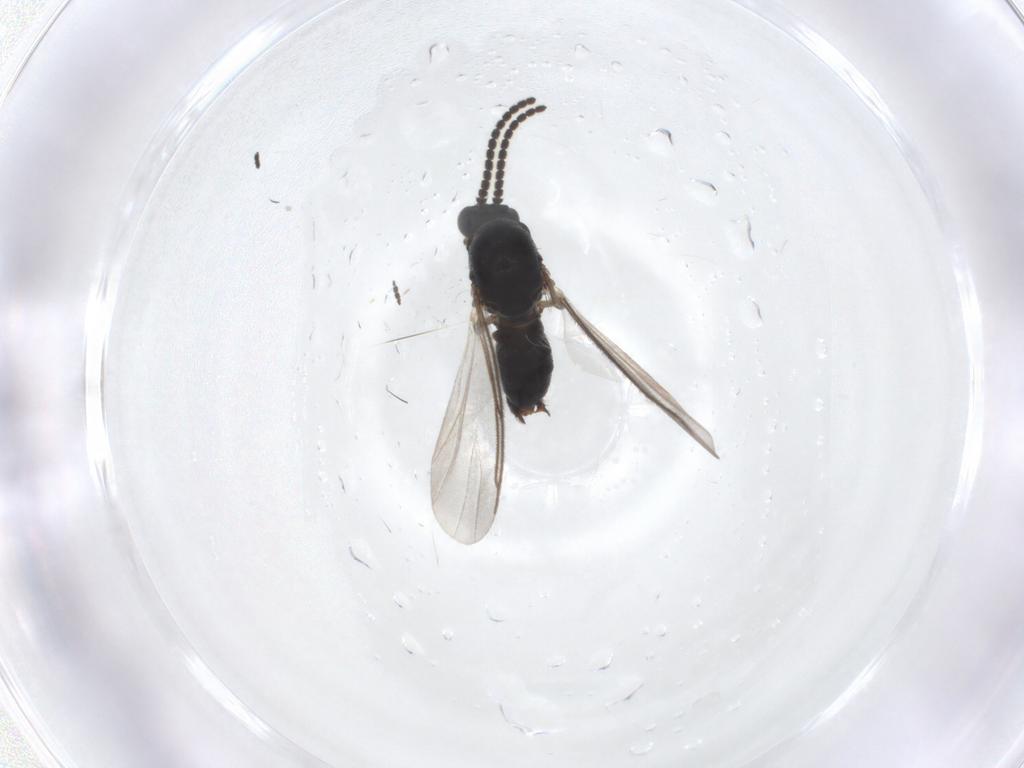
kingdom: Animalia
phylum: Arthropoda
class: Insecta
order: Diptera
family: Mycetophilidae
